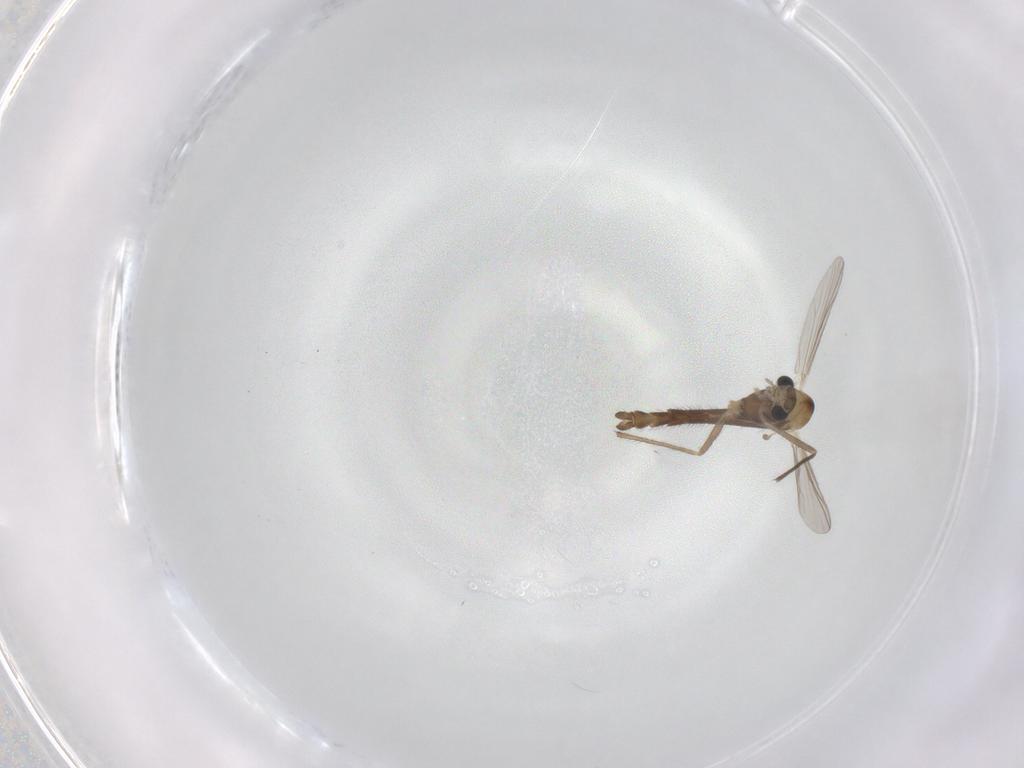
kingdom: Animalia
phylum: Arthropoda
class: Insecta
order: Diptera
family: Chironomidae
